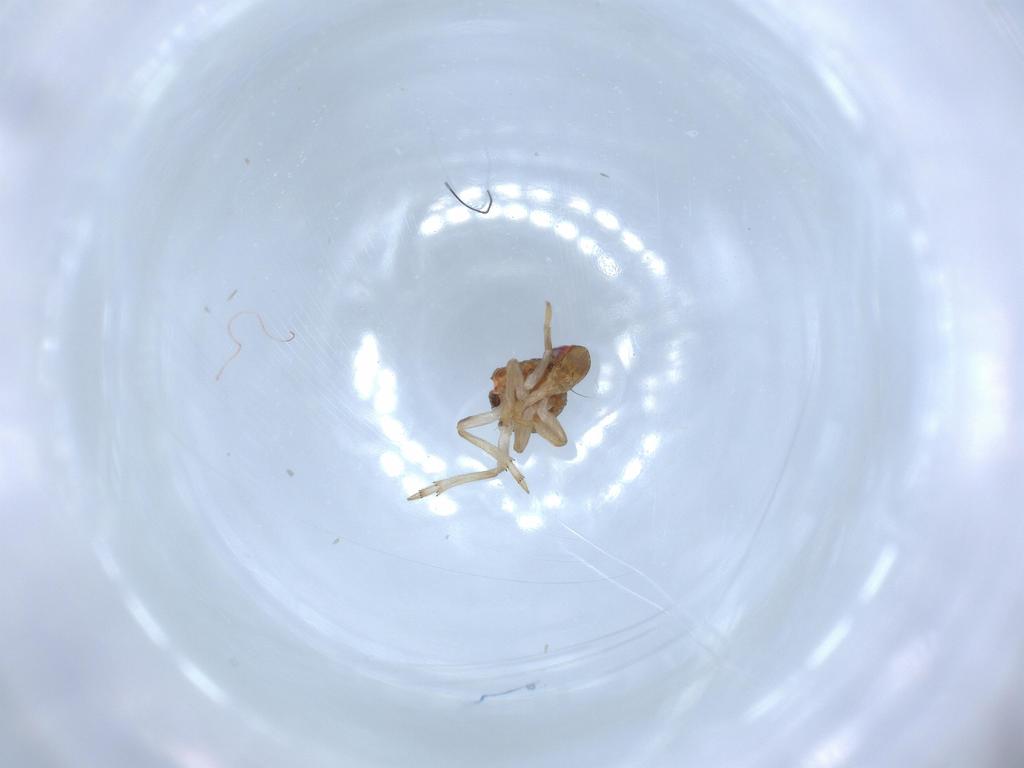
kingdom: Animalia
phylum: Arthropoda
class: Insecta
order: Hemiptera
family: Issidae
